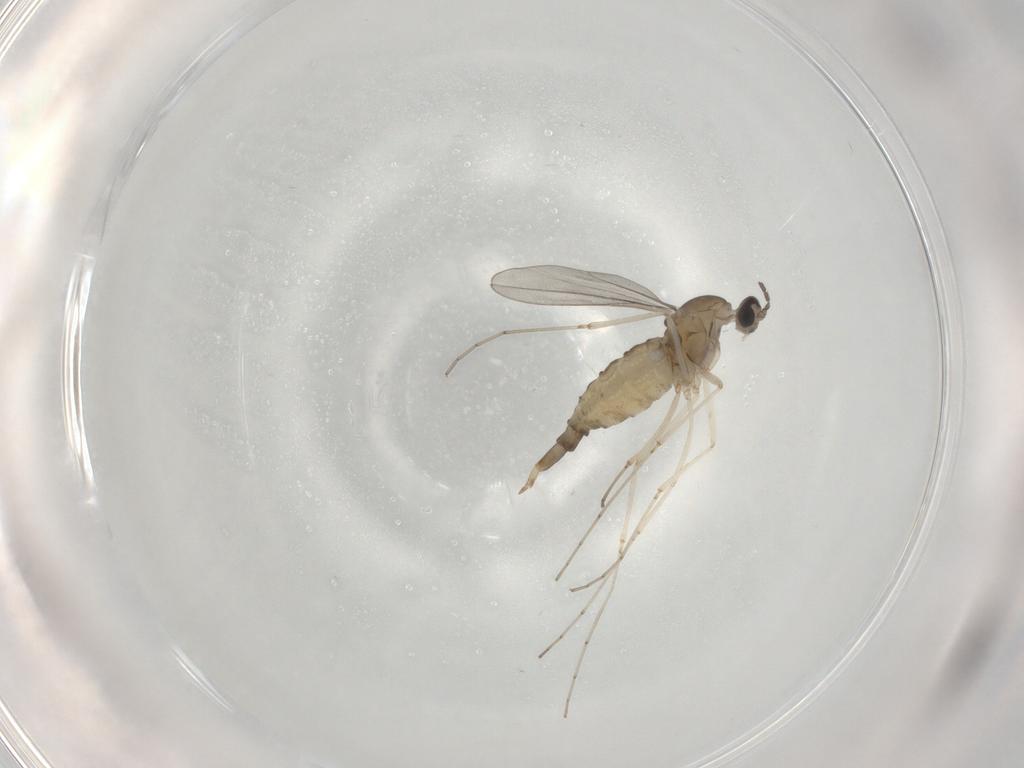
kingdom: Animalia
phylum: Arthropoda
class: Insecta
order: Diptera
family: Cecidomyiidae
